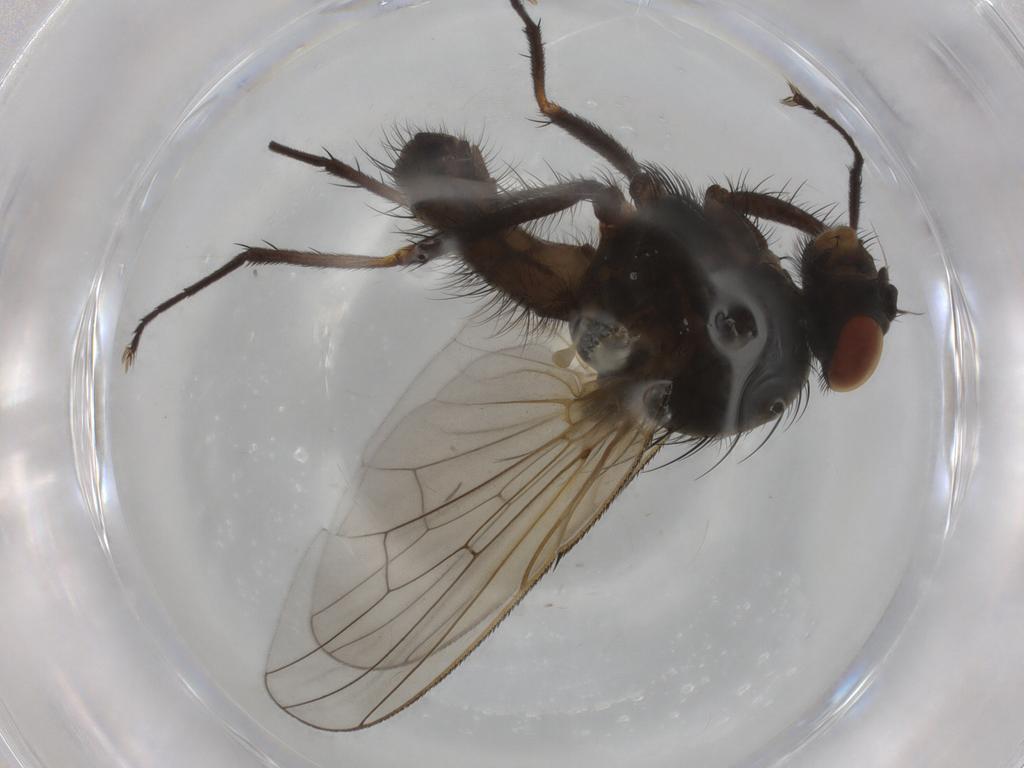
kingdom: Animalia
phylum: Arthropoda
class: Insecta
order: Diptera
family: Anthomyiidae
